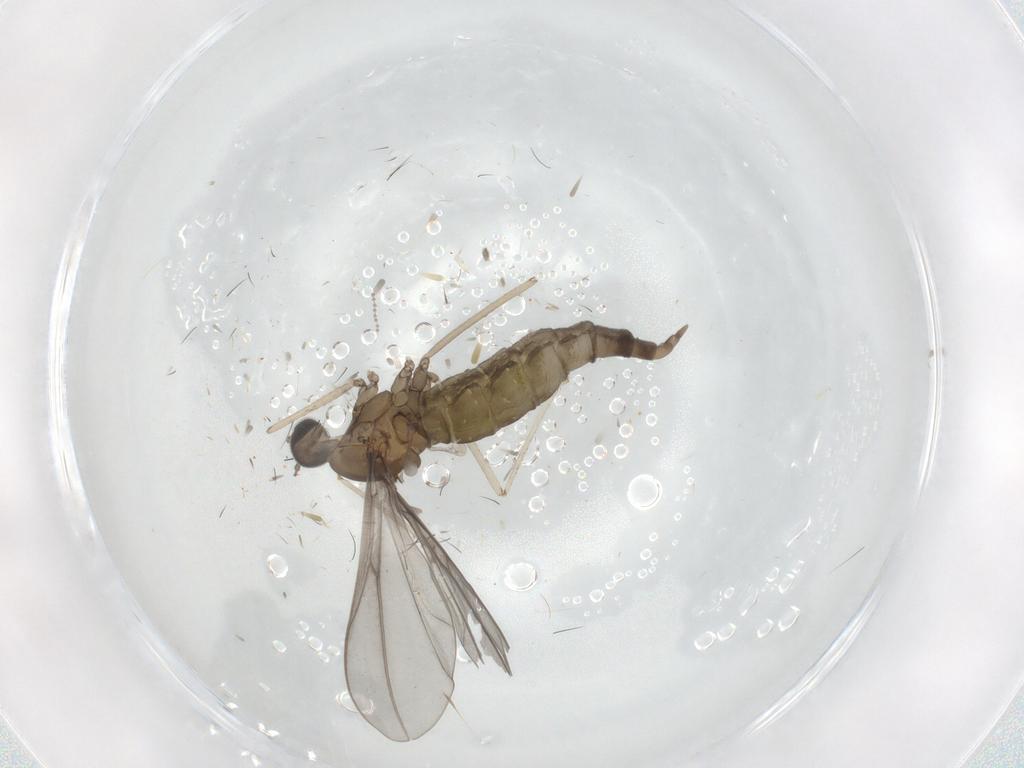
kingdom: Animalia
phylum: Arthropoda
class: Insecta
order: Diptera
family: Cecidomyiidae
